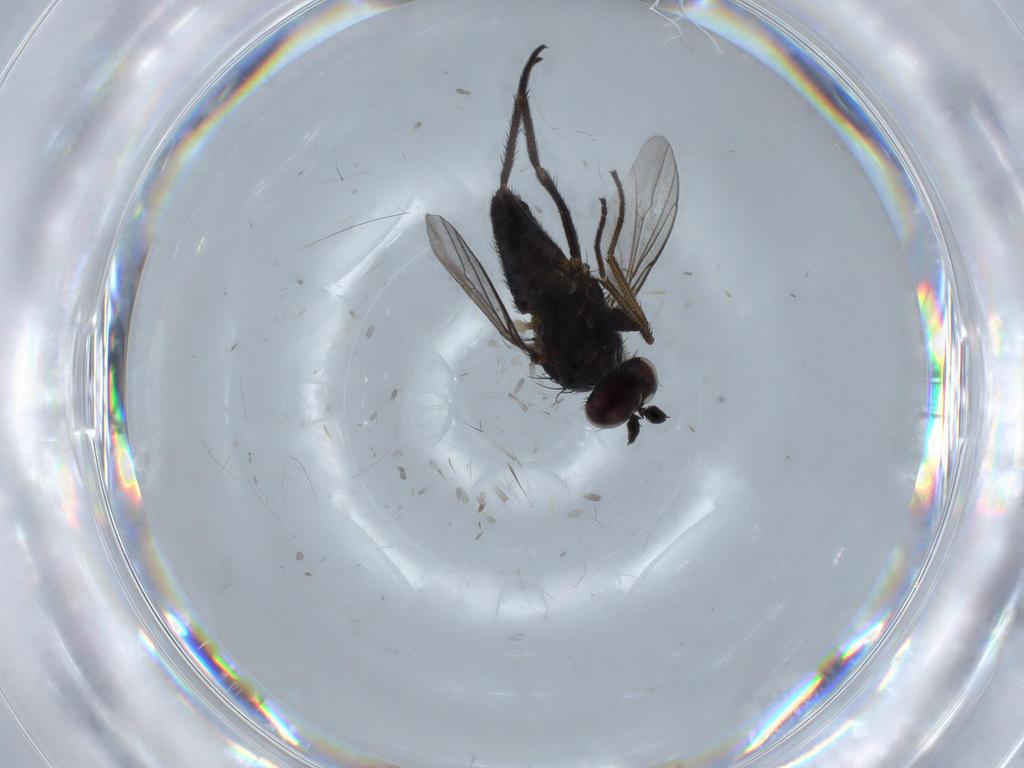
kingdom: Animalia
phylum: Arthropoda
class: Insecta
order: Diptera
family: Dolichopodidae
